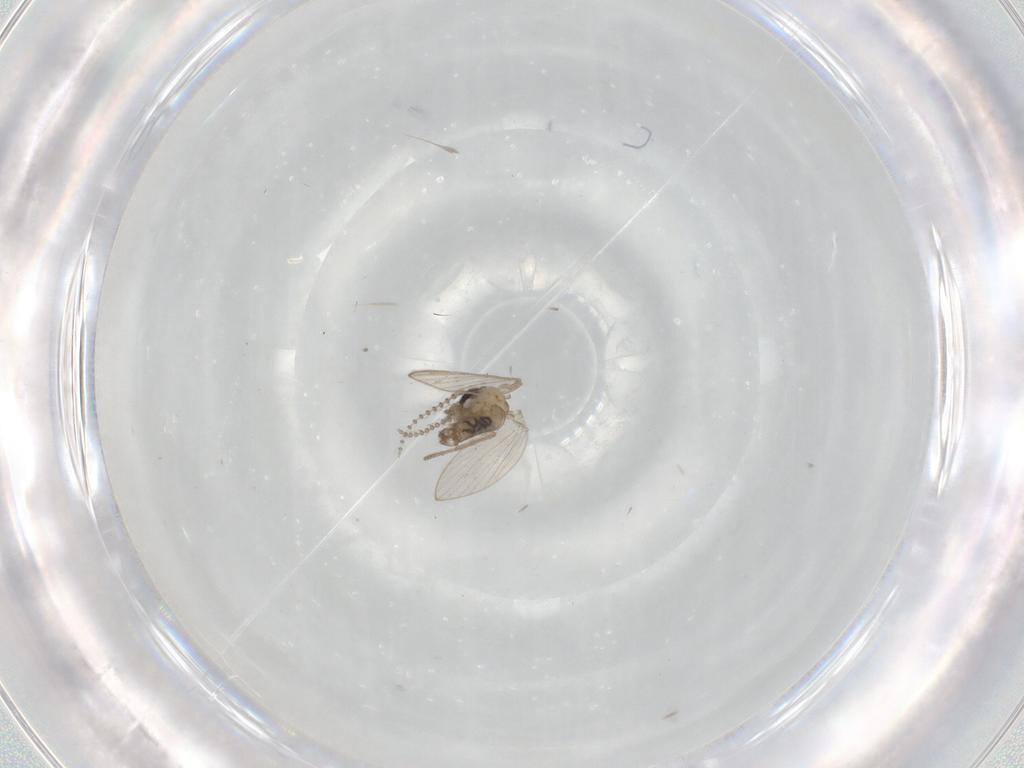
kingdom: Animalia
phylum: Arthropoda
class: Insecta
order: Diptera
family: Psychodidae
